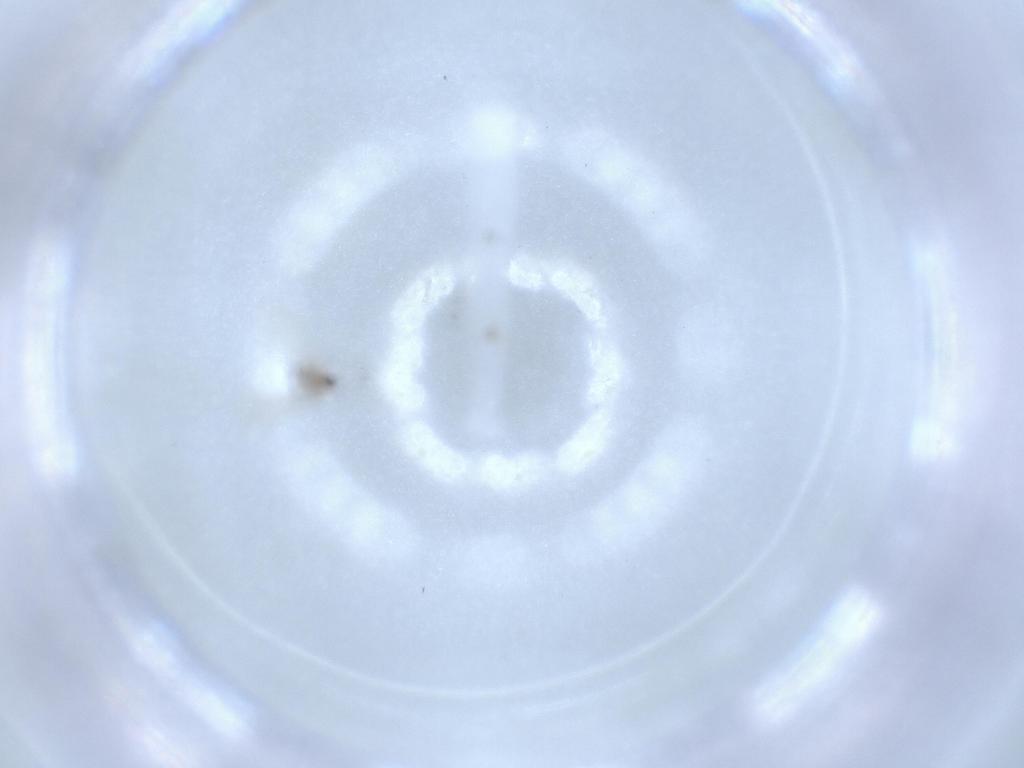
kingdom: Animalia
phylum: Arthropoda
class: Insecta
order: Diptera
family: Cecidomyiidae
